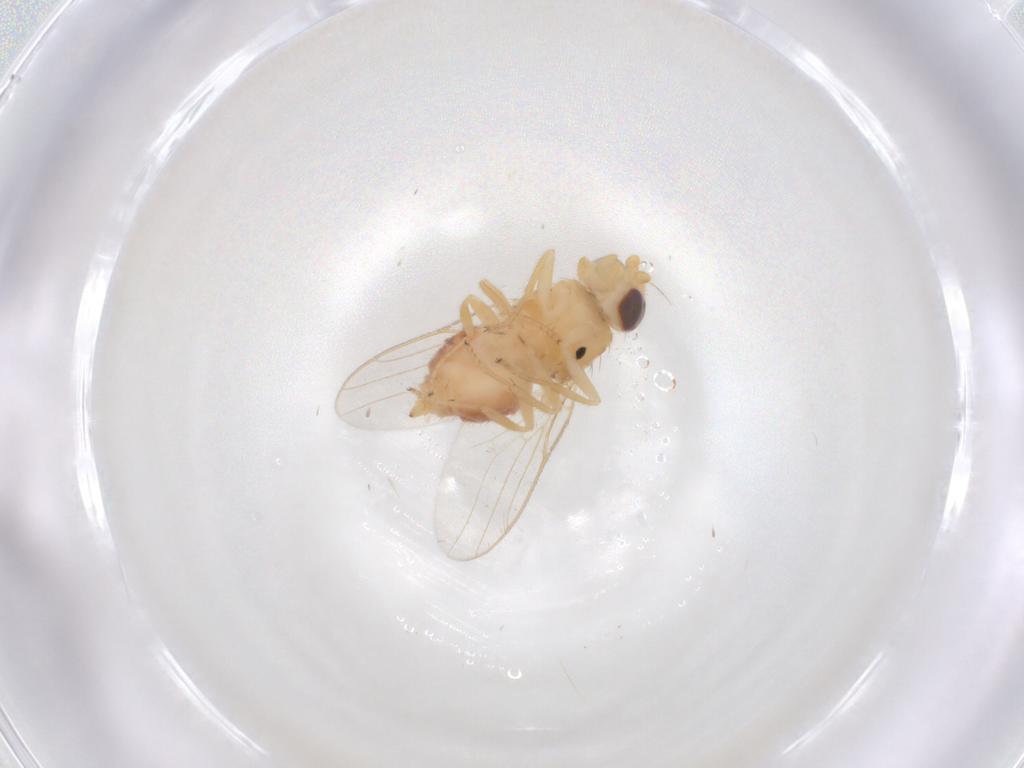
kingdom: Animalia
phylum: Arthropoda
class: Insecta
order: Diptera
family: Chloropidae
